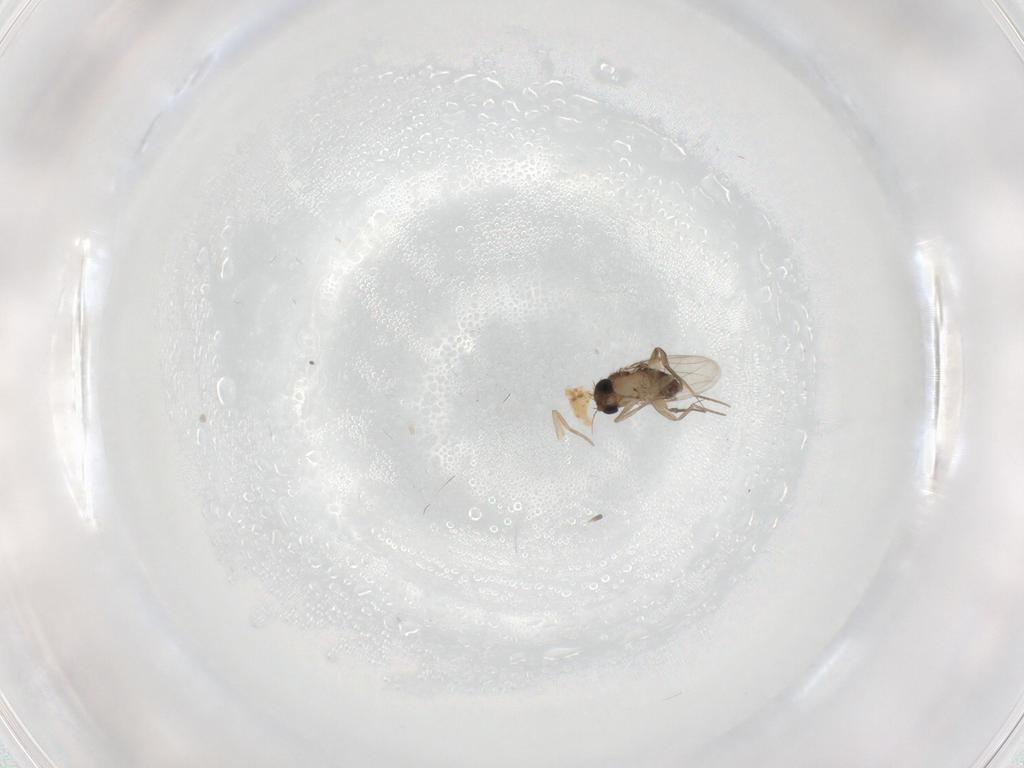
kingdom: Animalia
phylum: Arthropoda
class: Insecta
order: Diptera
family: Phoridae
